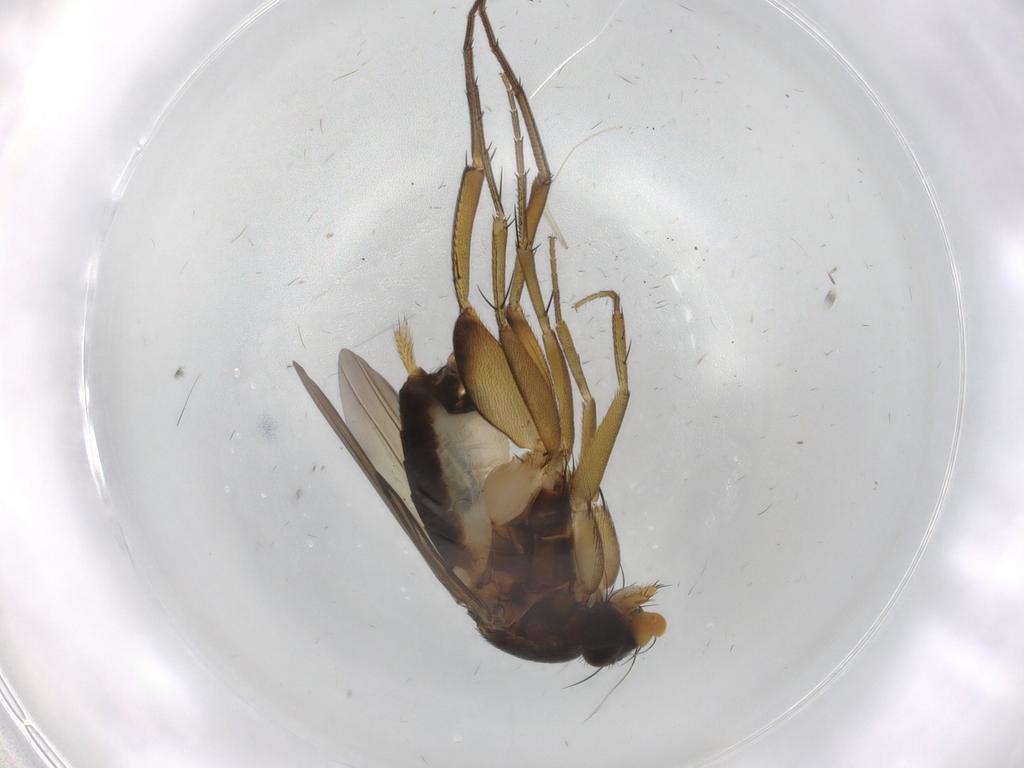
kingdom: Animalia
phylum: Arthropoda
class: Insecta
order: Diptera
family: Phoridae
